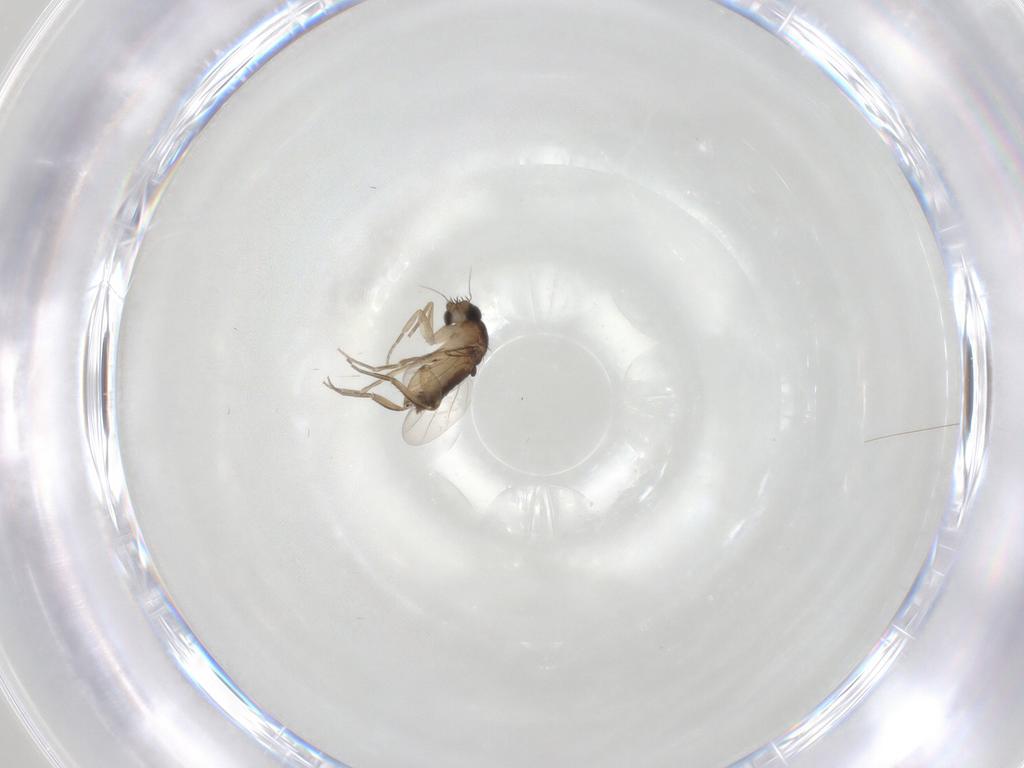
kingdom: Animalia
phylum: Arthropoda
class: Insecta
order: Diptera
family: Phoridae
